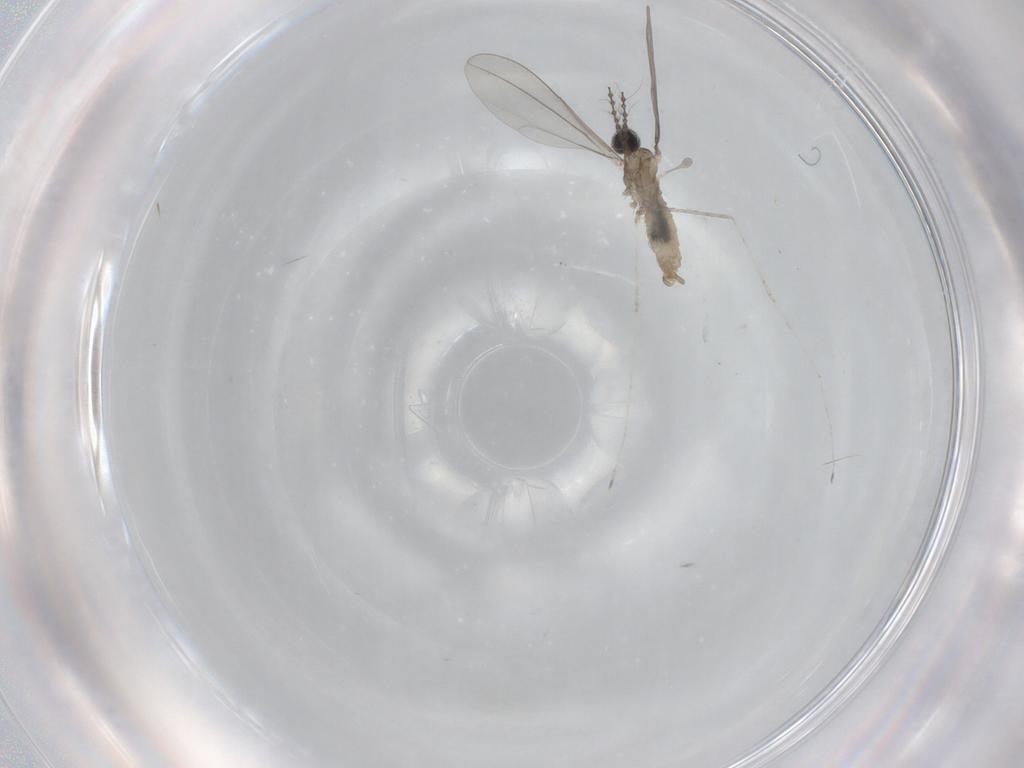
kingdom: Animalia
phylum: Arthropoda
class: Insecta
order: Diptera
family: Cecidomyiidae
